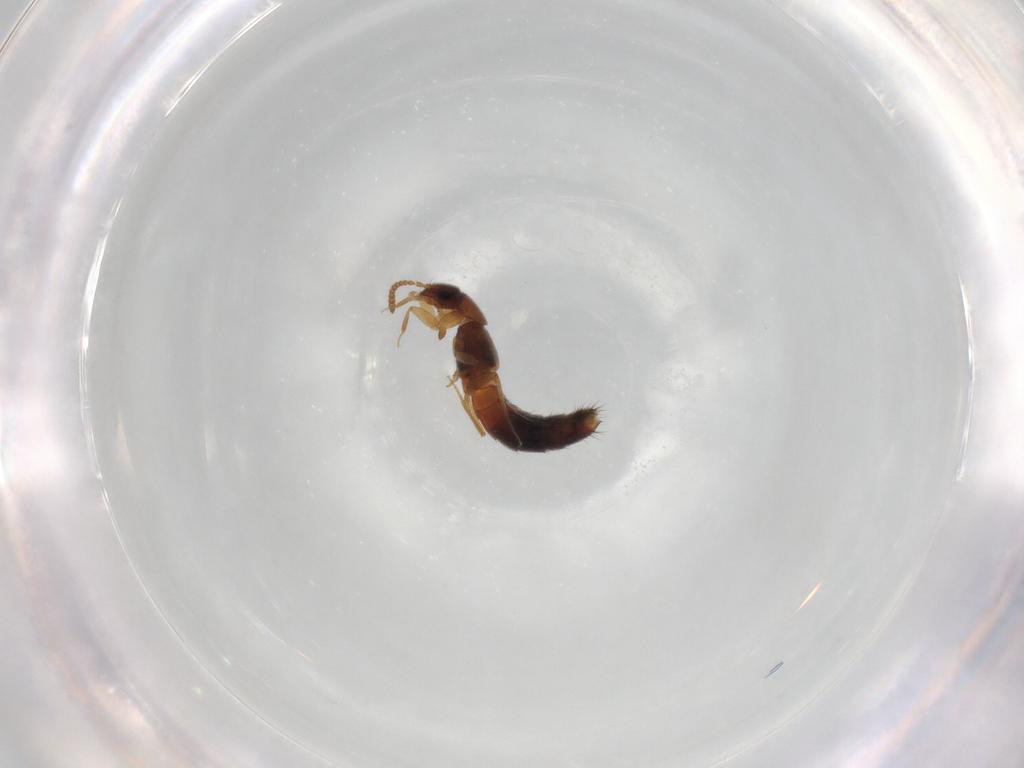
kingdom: Animalia
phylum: Arthropoda
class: Insecta
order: Coleoptera
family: Staphylinidae
